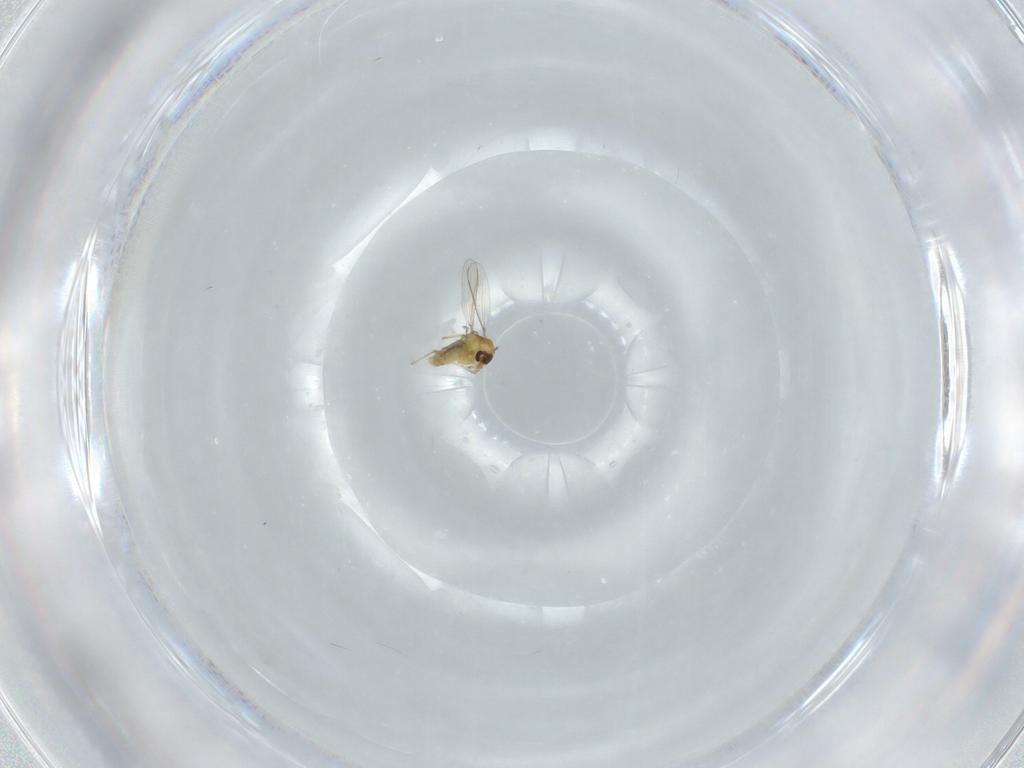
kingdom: Animalia
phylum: Arthropoda
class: Insecta
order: Diptera
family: Chironomidae
